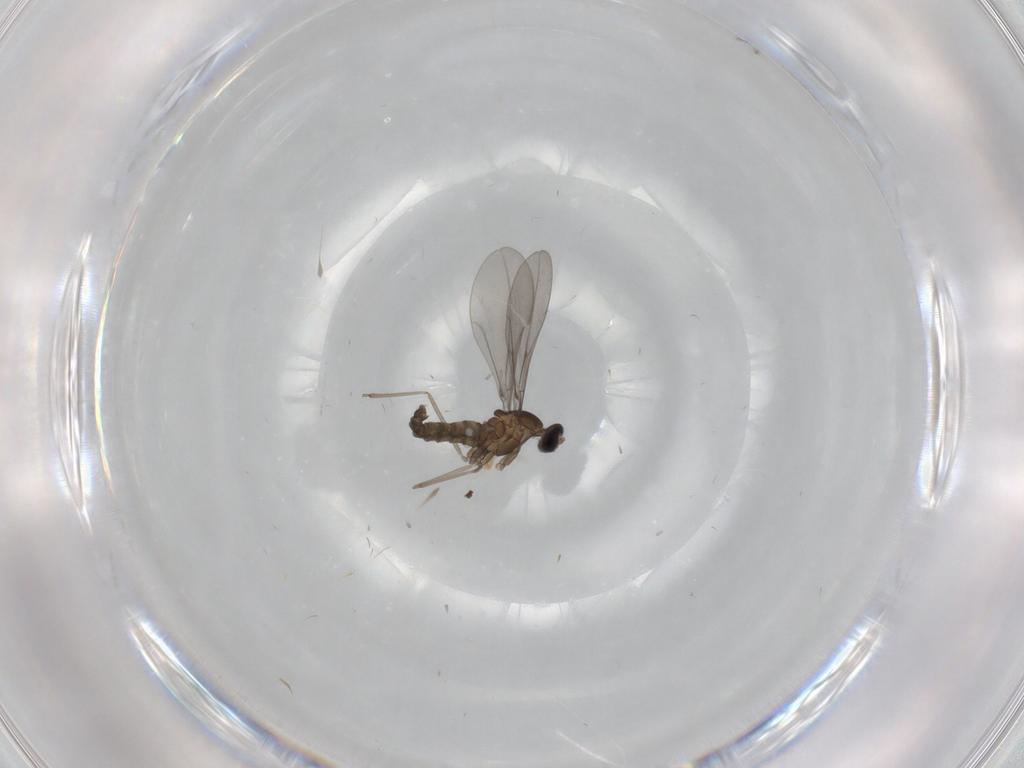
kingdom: Animalia
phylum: Arthropoda
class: Insecta
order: Diptera
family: Cecidomyiidae
